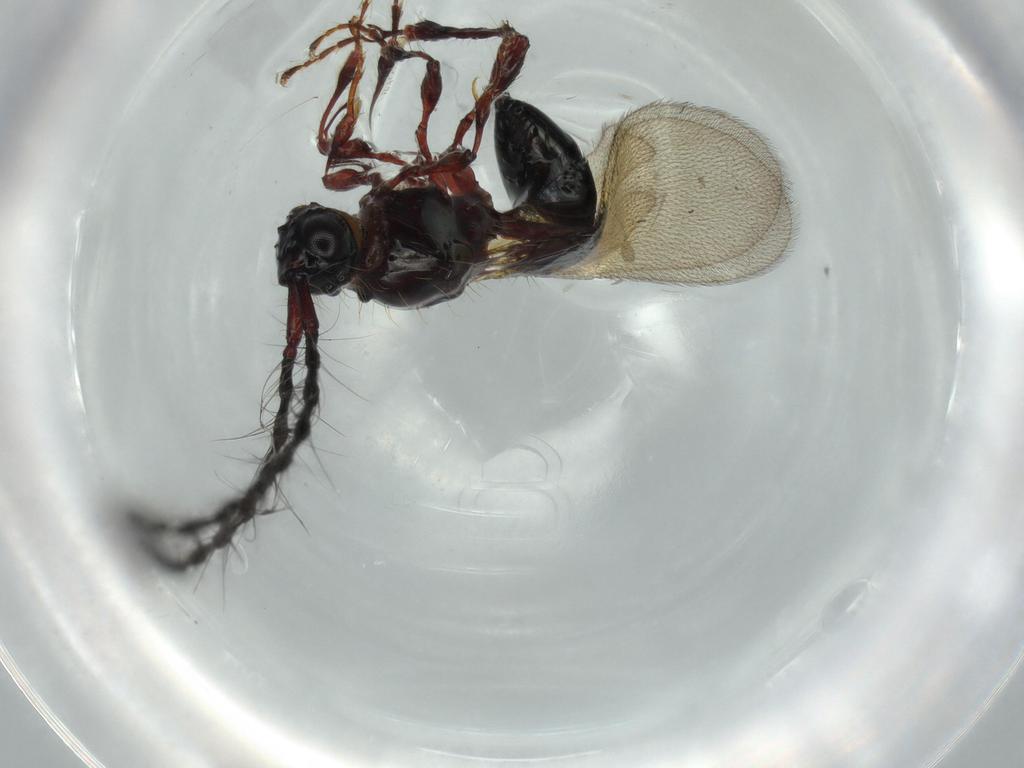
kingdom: Animalia
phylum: Arthropoda
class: Insecta
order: Hymenoptera
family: Diapriidae
